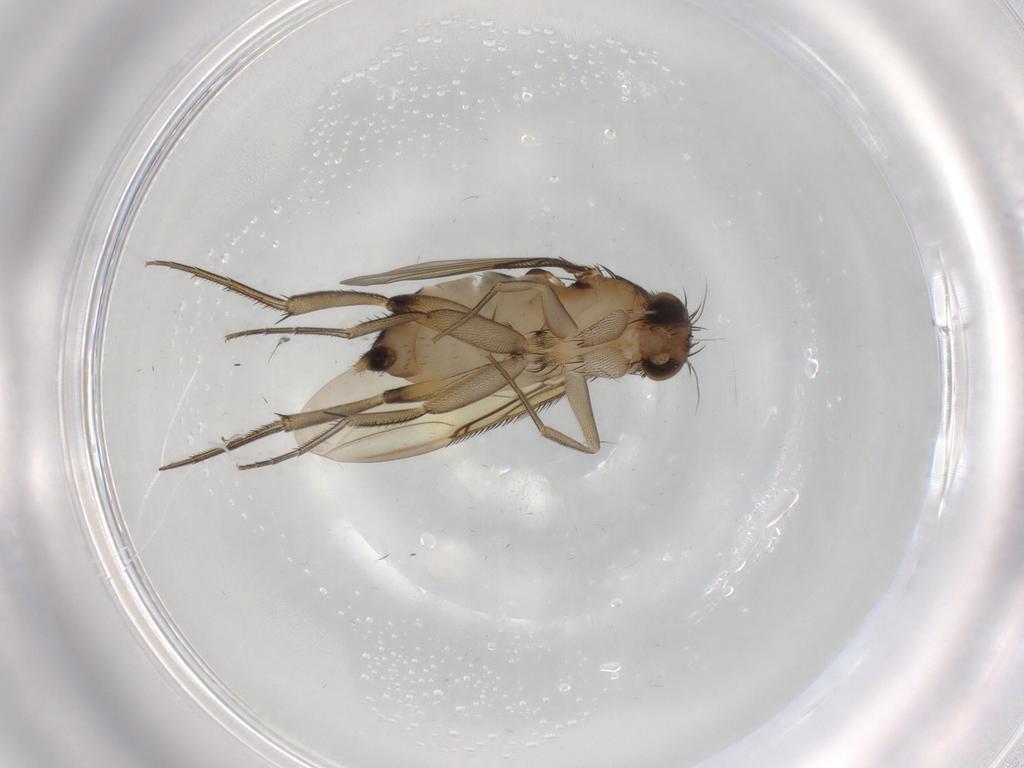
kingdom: Animalia
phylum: Arthropoda
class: Insecta
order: Diptera
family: Phoridae
